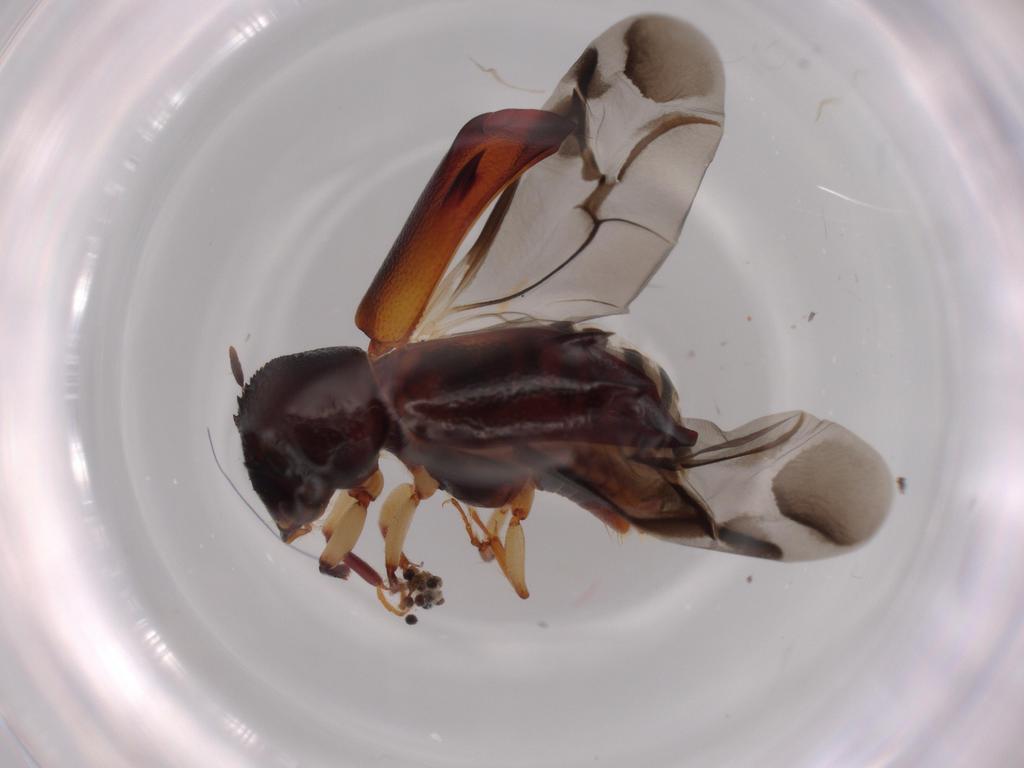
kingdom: Animalia
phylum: Arthropoda
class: Insecta
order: Coleoptera
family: Bostrichidae
